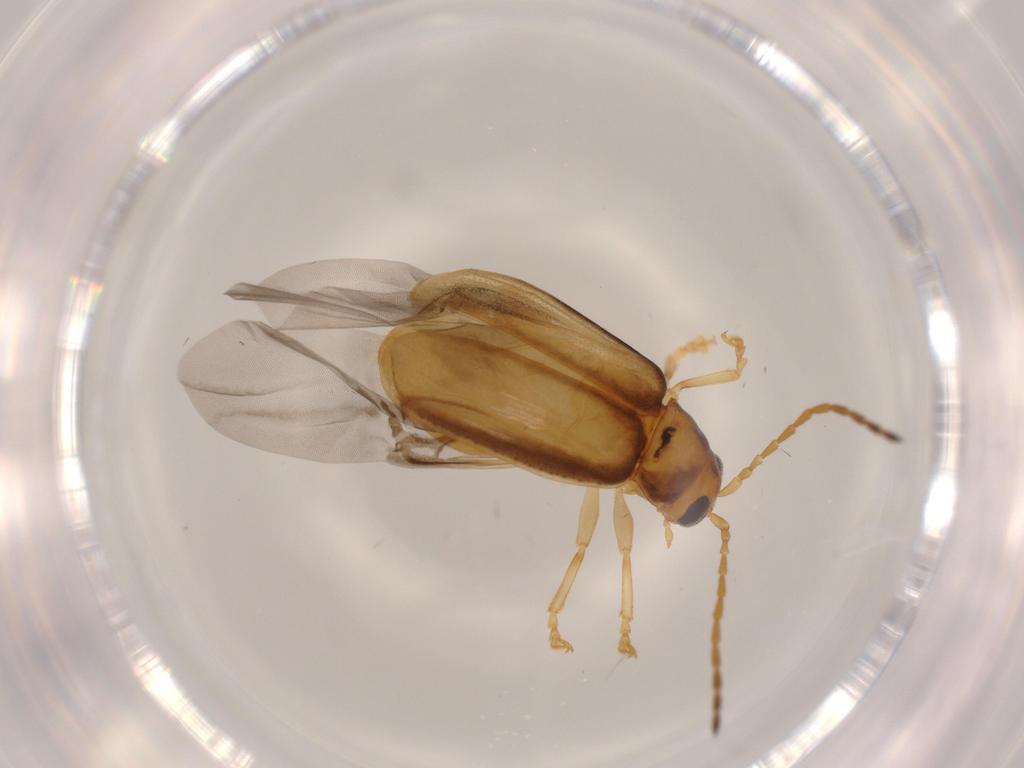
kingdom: Animalia
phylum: Arthropoda
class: Insecta
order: Coleoptera
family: Chrysomelidae
